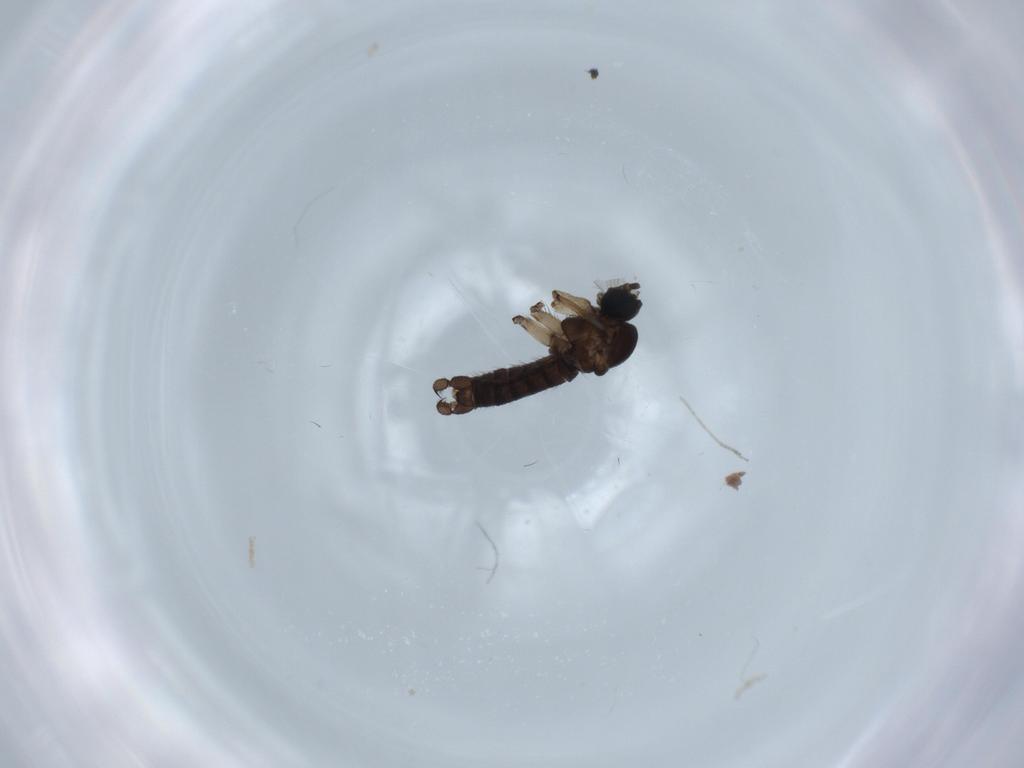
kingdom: Animalia
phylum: Arthropoda
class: Insecta
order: Diptera
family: Sciaridae
